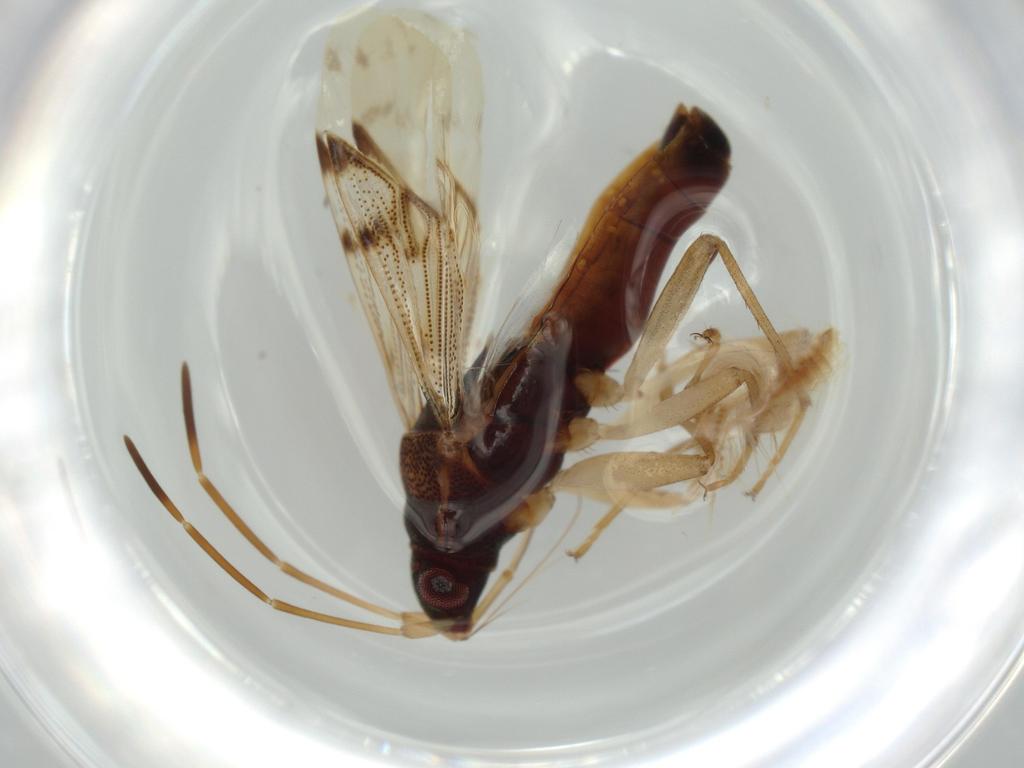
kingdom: Animalia
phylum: Arthropoda
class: Insecta
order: Hemiptera
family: Rhyparochromidae
